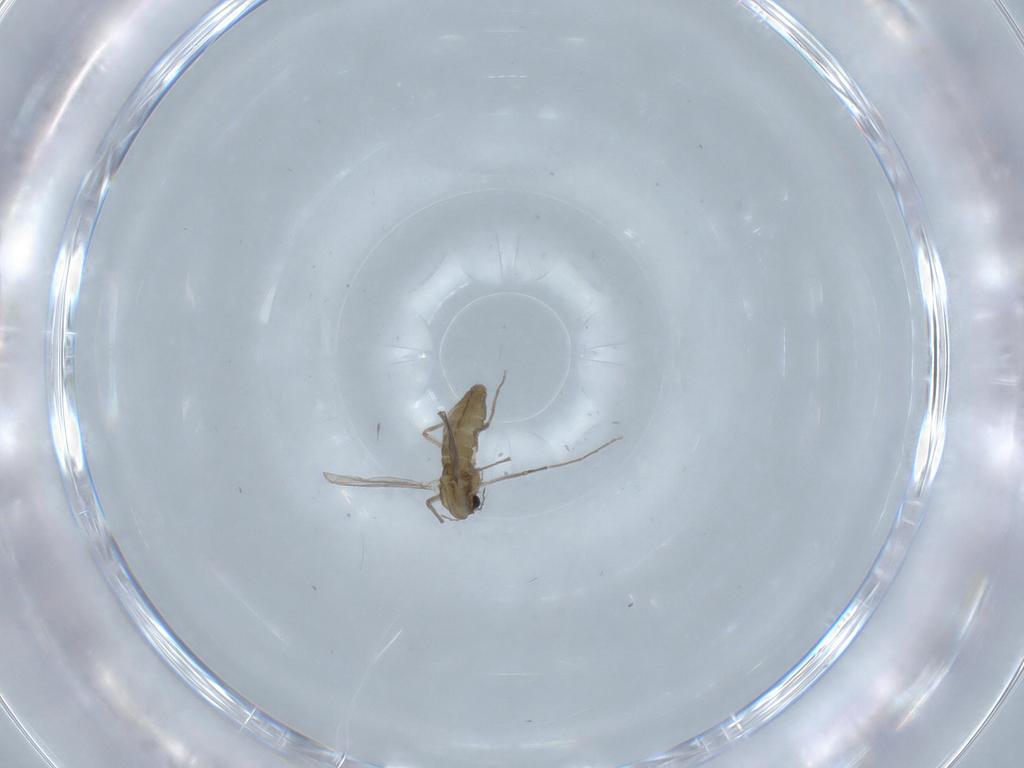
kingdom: Animalia
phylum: Arthropoda
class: Insecta
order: Diptera
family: Chironomidae
